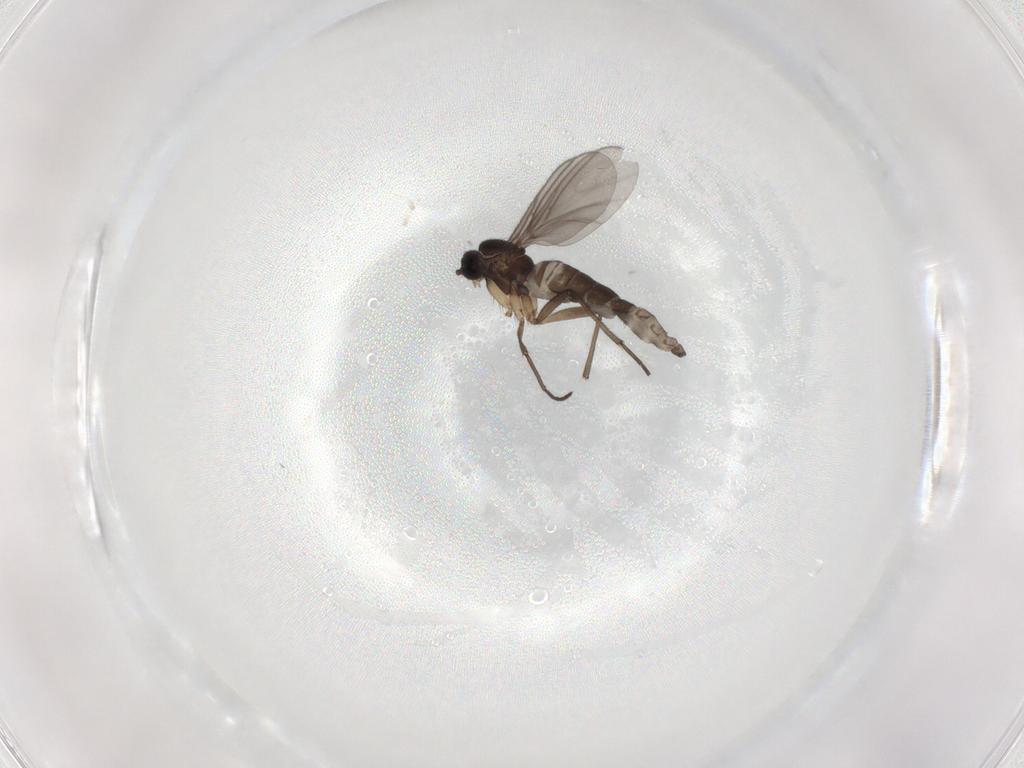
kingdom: Animalia
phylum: Arthropoda
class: Insecta
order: Diptera
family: Sciaridae
